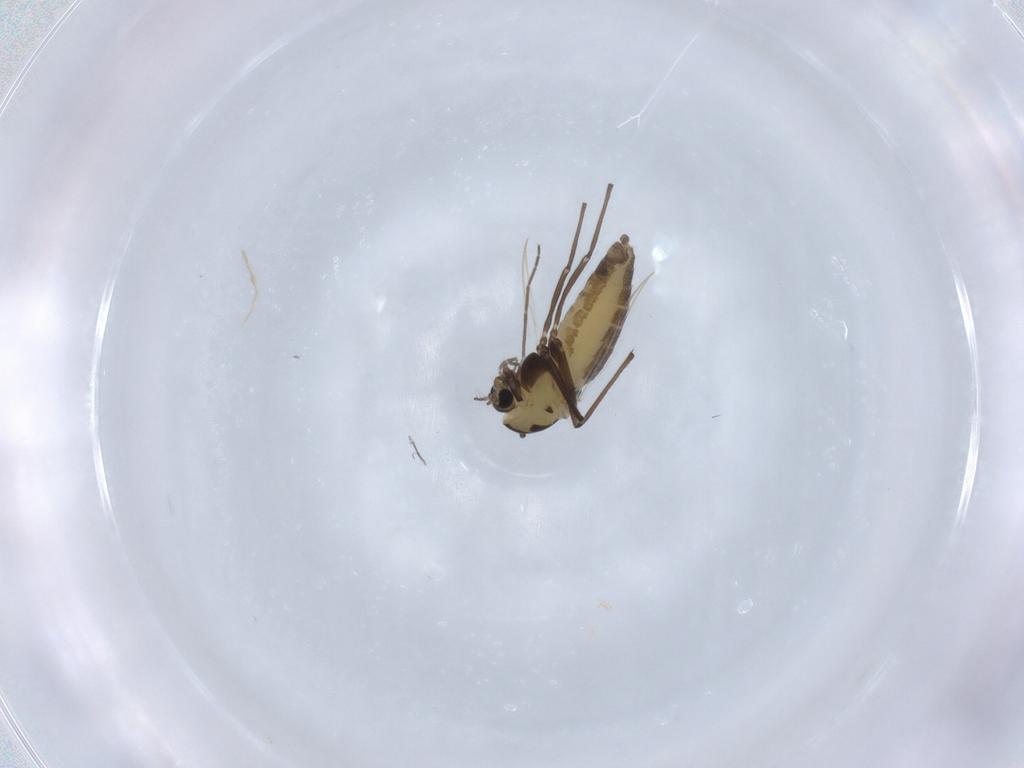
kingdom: Animalia
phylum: Arthropoda
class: Insecta
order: Diptera
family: Chironomidae
